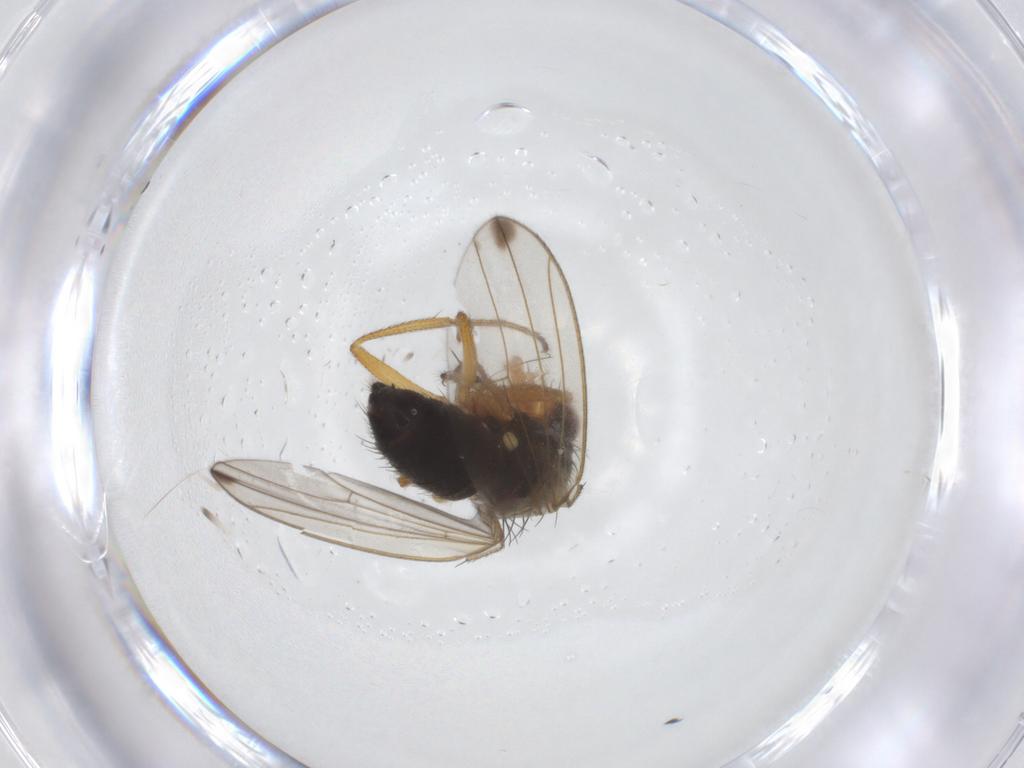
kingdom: Animalia
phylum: Arthropoda
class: Insecta
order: Diptera
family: Drosophilidae
